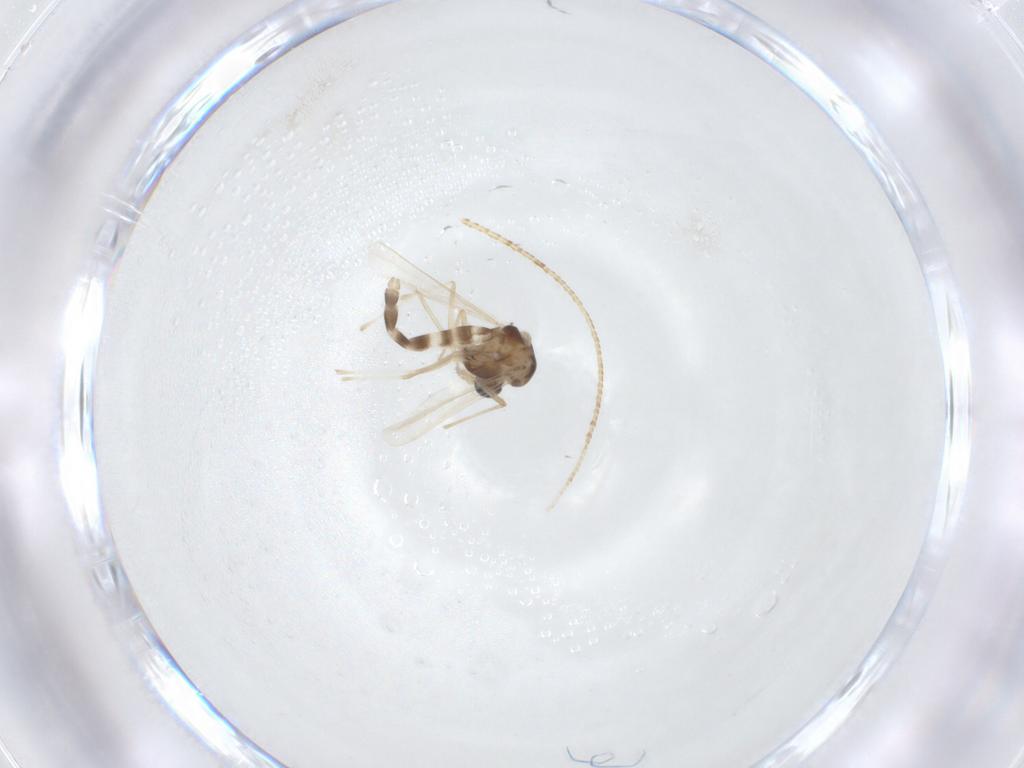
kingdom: Animalia
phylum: Arthropoda
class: Insecta
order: Diptera
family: Chironomidae
